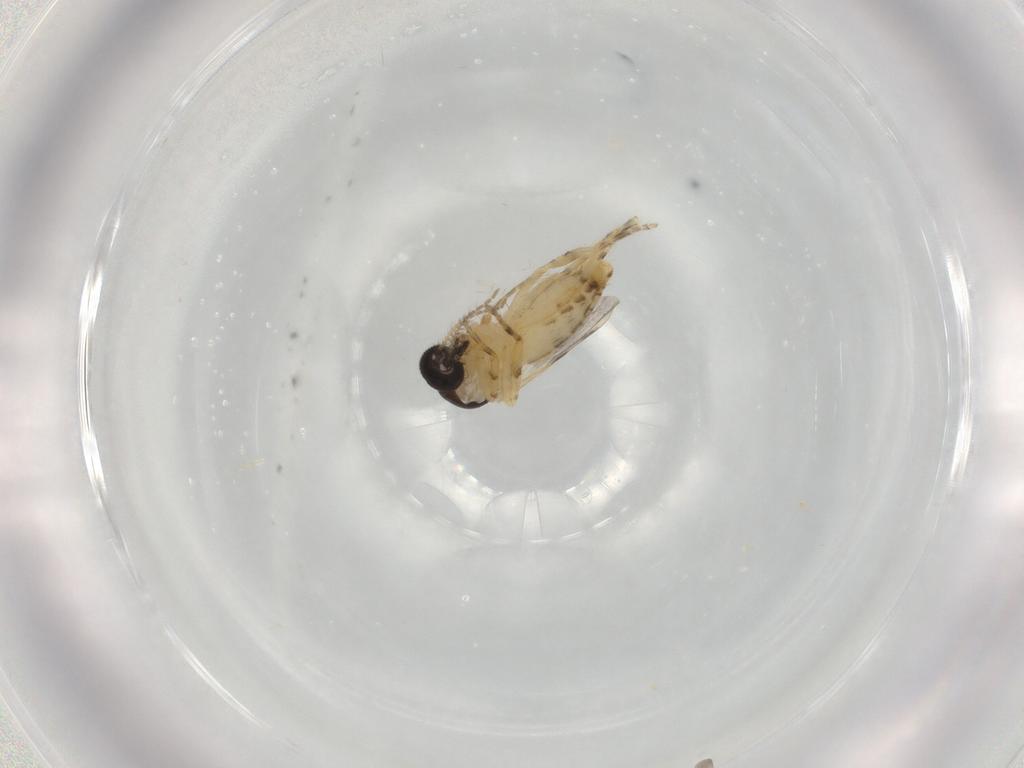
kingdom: Animalia
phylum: Arthropoda
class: Insecta
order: Diptera
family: Ceratopogonidae
